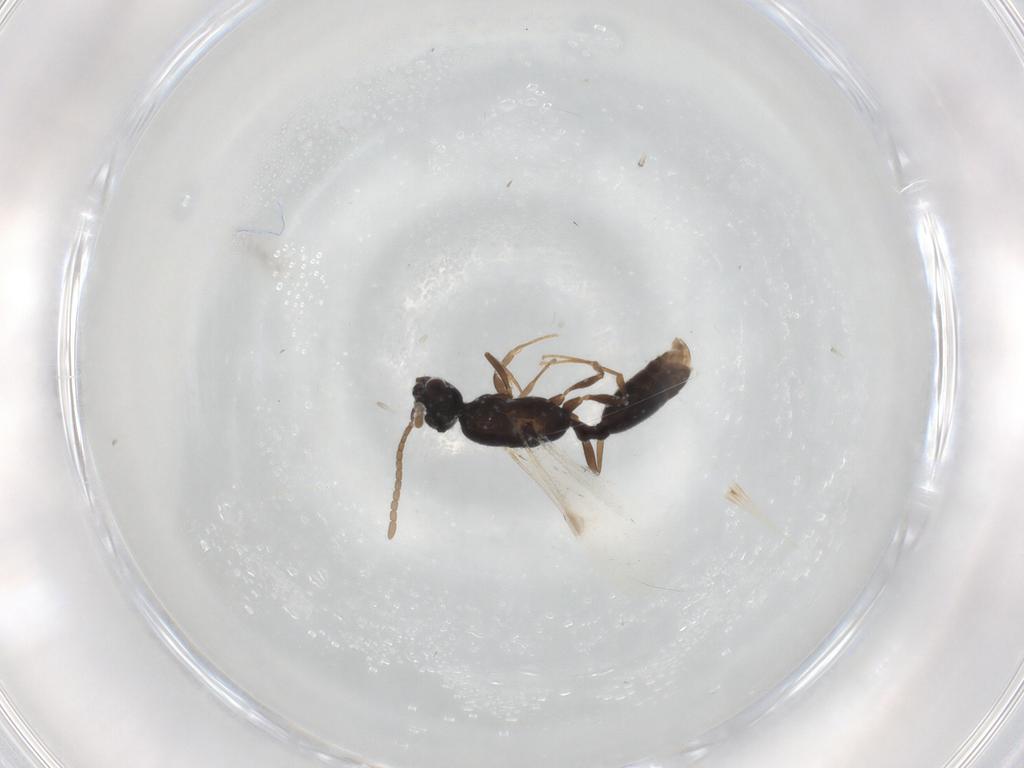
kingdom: Animalia
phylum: Arthropoda
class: Insecta
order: Hymenoptera
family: Formicidae
